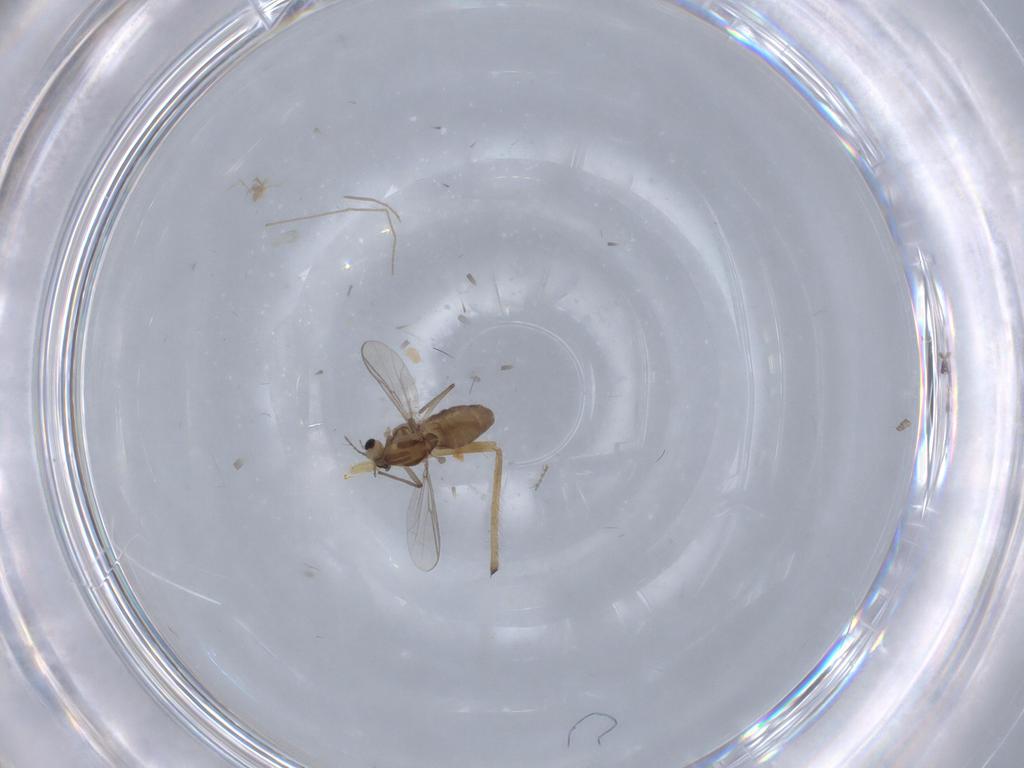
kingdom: Animalia
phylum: Arthropoda
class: Insecta
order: Diptera
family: Chironomidae
